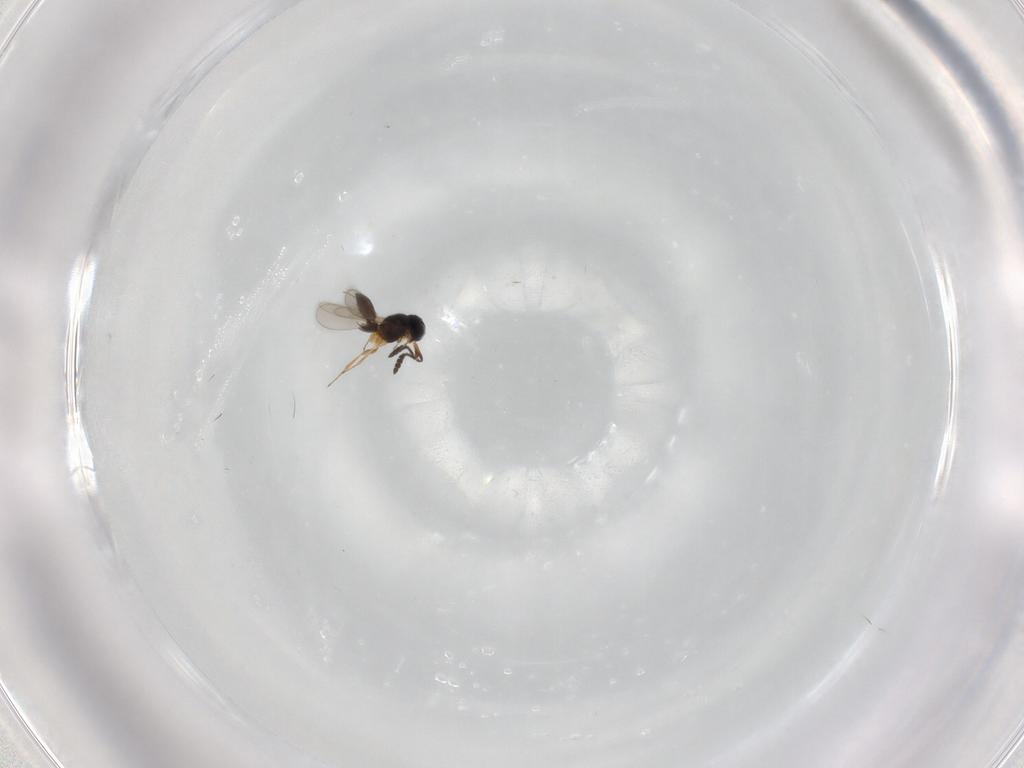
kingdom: Animalia
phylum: Arthropoda
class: Insecta
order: Hymenoptera
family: Scelionidae
